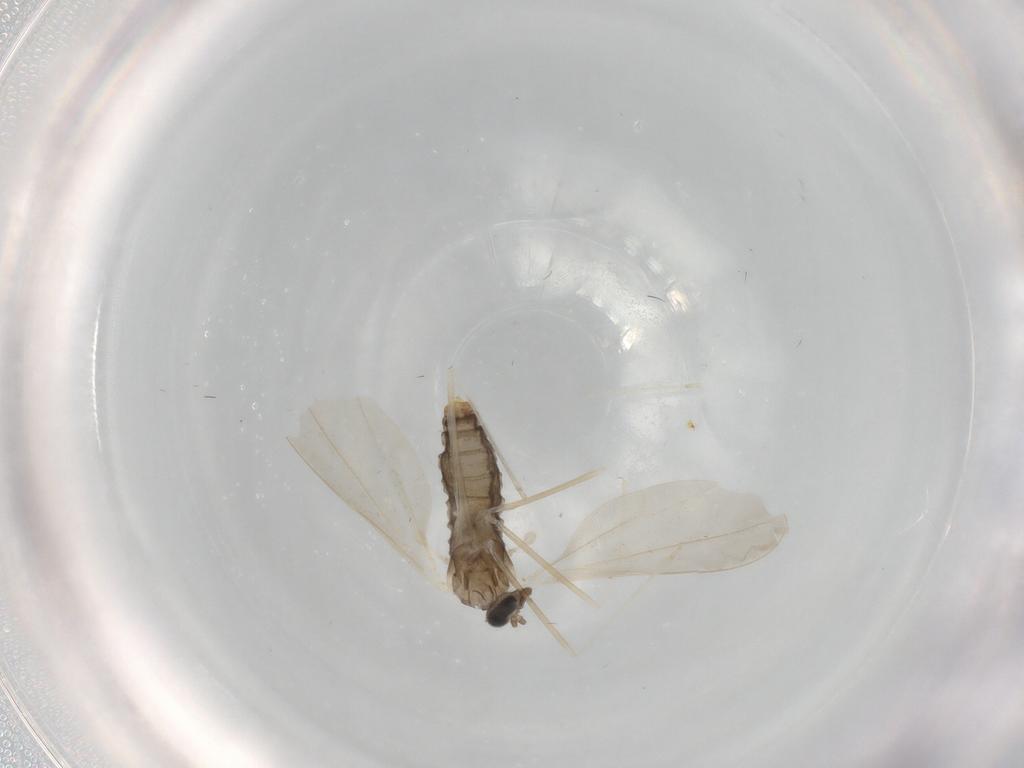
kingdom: Animalia
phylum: Arthropoda
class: Insecta
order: Diptera
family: Cecidomyiidae
